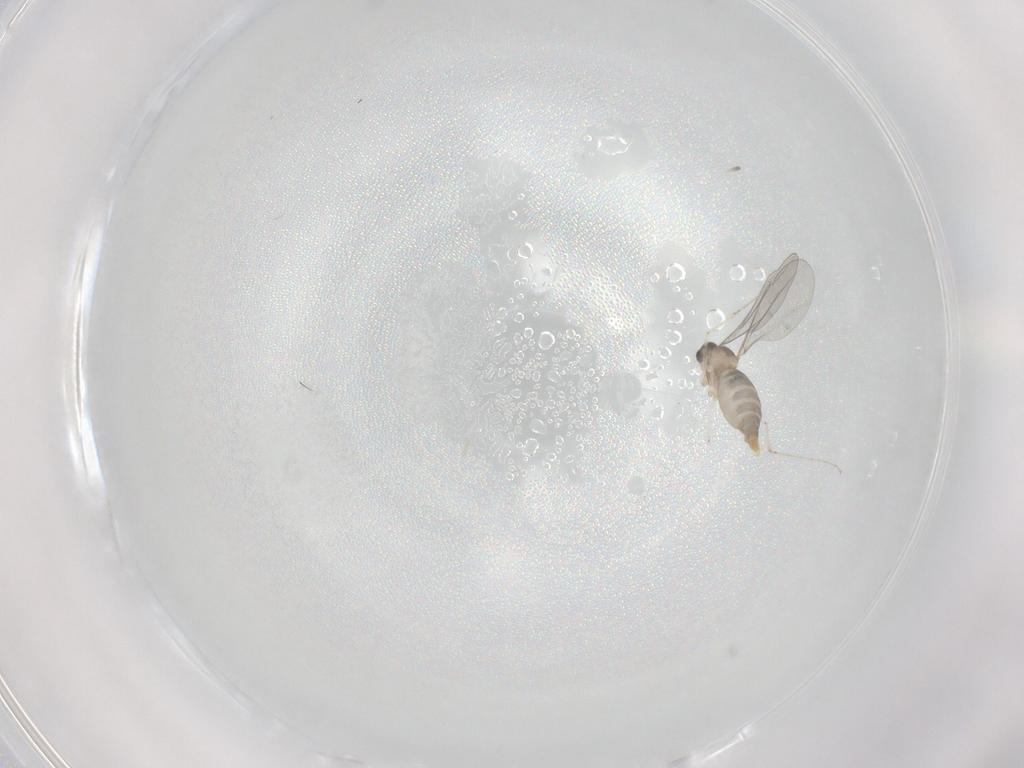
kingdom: Animalia
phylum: Arthropoda
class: Insecta
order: Diptera
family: Cecidomyiidae
